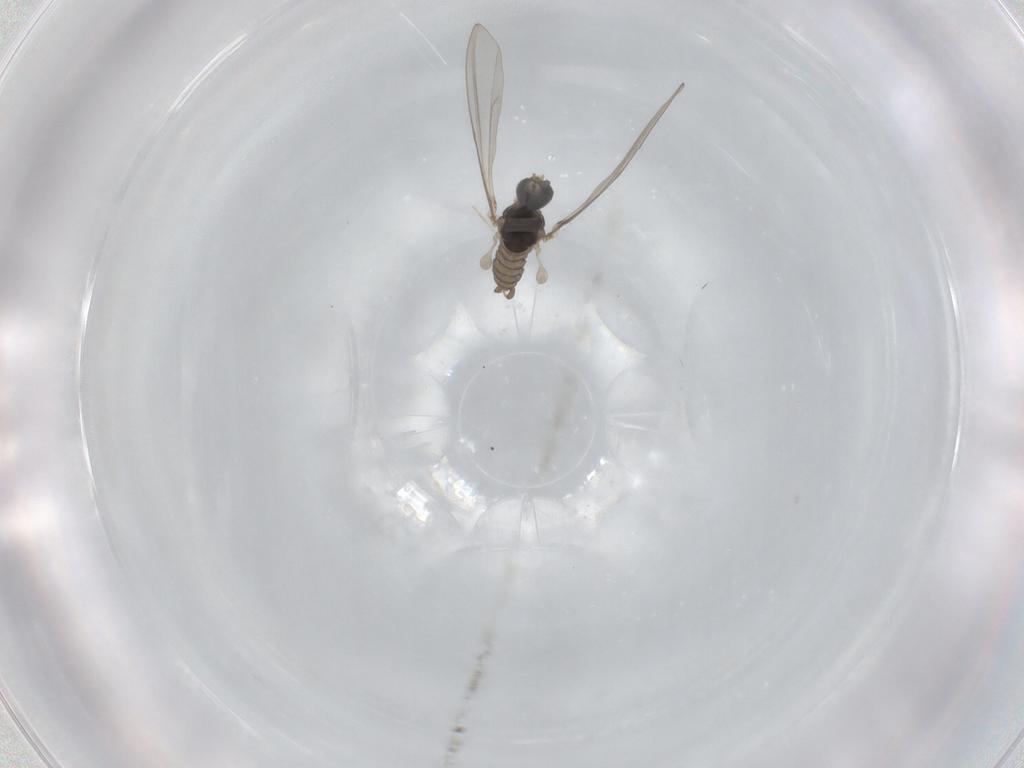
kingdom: Animalia
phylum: Arthropoda
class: Insecta
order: Diptera
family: Cecidomyiidae
